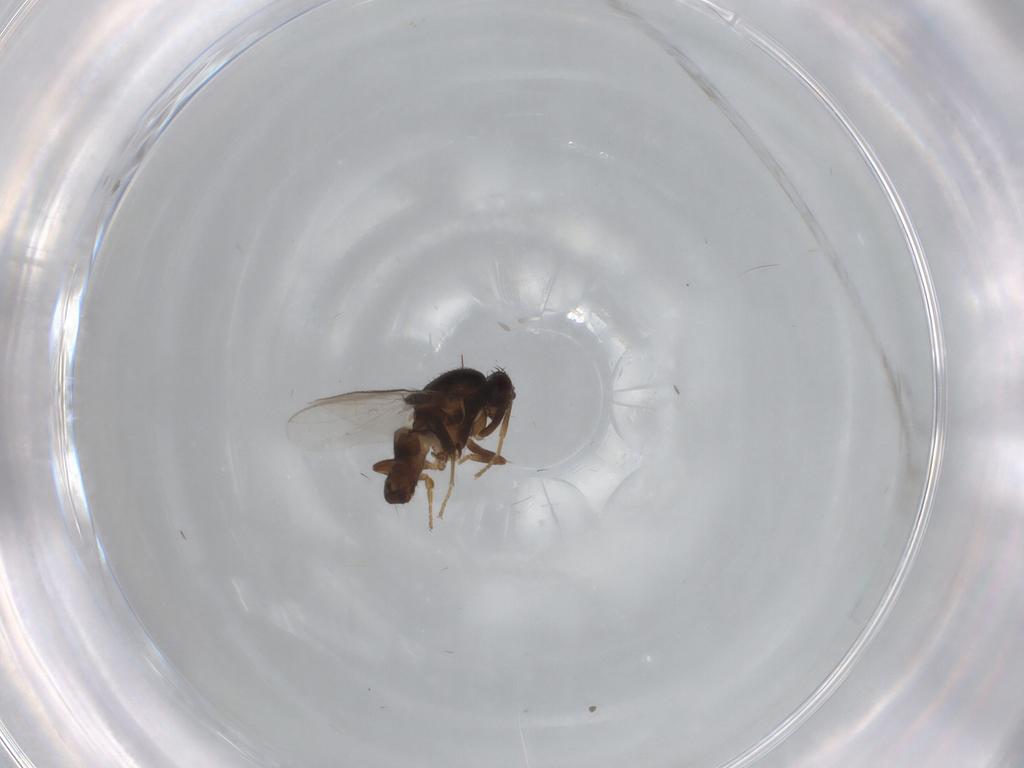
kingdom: Animalia
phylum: Arthropoda
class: Insecta
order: Diptera
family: Sphaeroceridae
